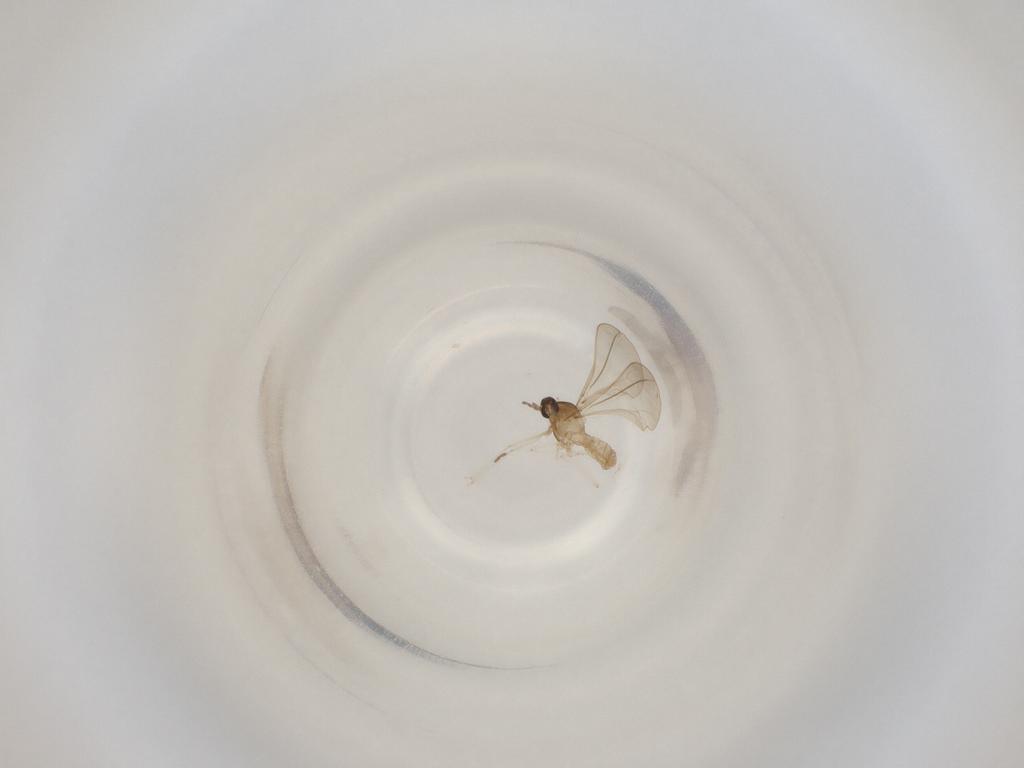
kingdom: Animalia
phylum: Arthropoda
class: Insecta
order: Diptera
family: Cecidomyiidae
